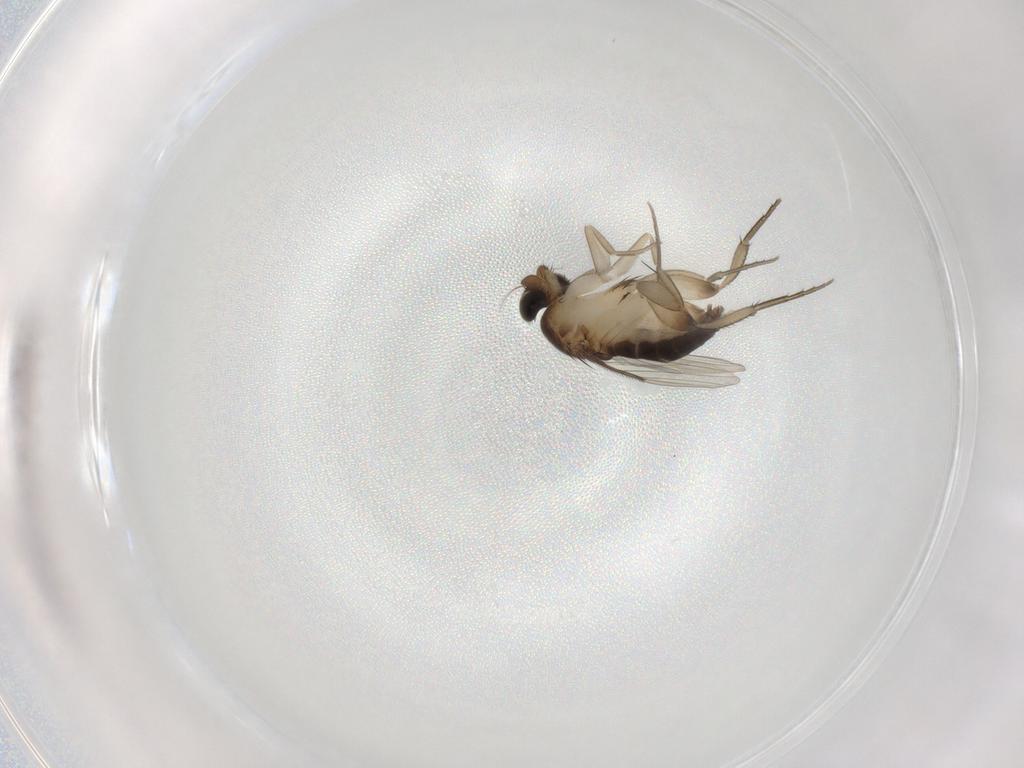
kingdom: Animalia
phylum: Arthropoda
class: Insecta
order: Diptera
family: Phoridae
